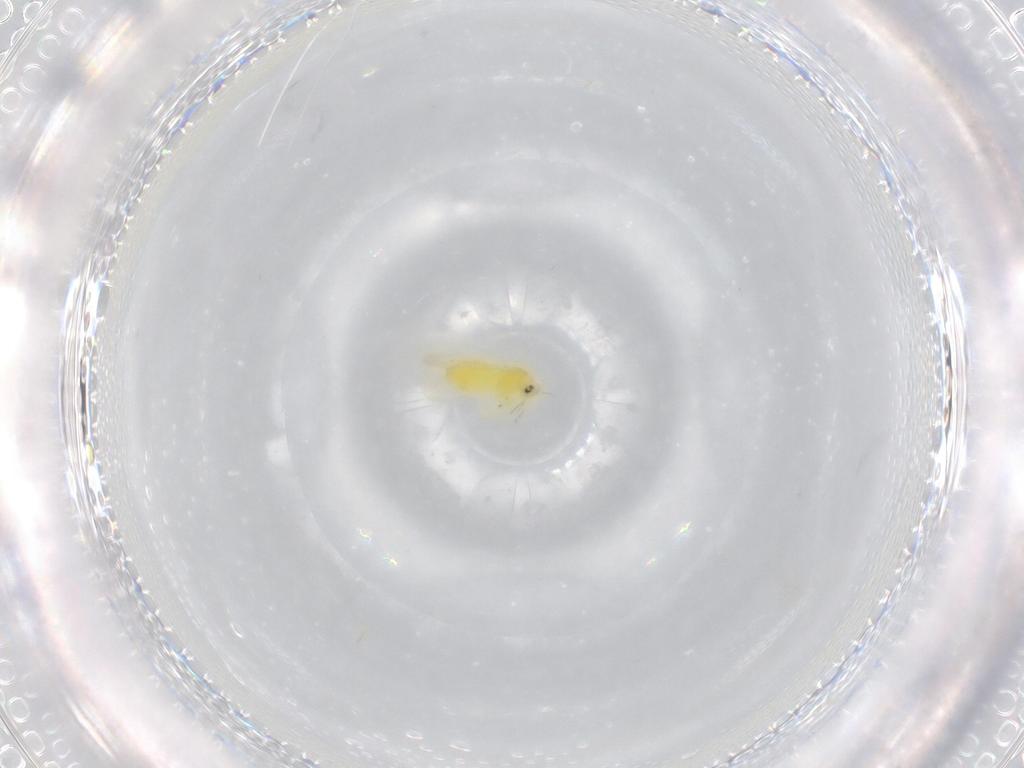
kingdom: Animalia
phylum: Arthropoda
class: Insecta
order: Hemiptera
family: Aleyrodidae
